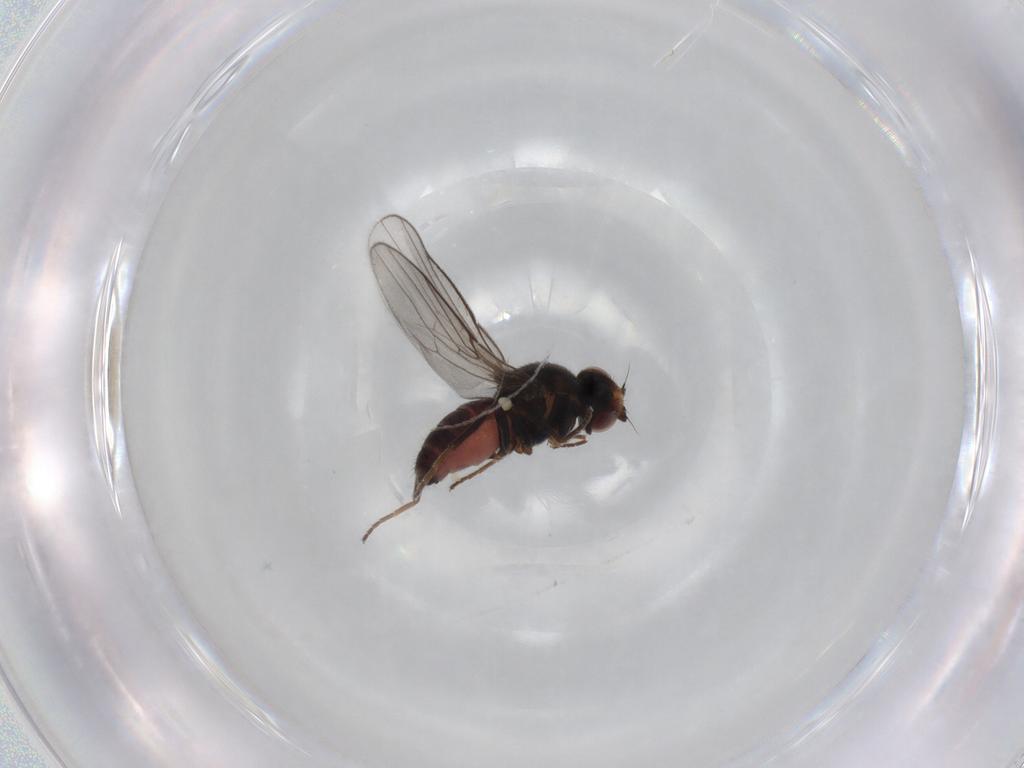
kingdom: Animalia
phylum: Arthropoda
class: Insecta
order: Diptera
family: Chloropidae
